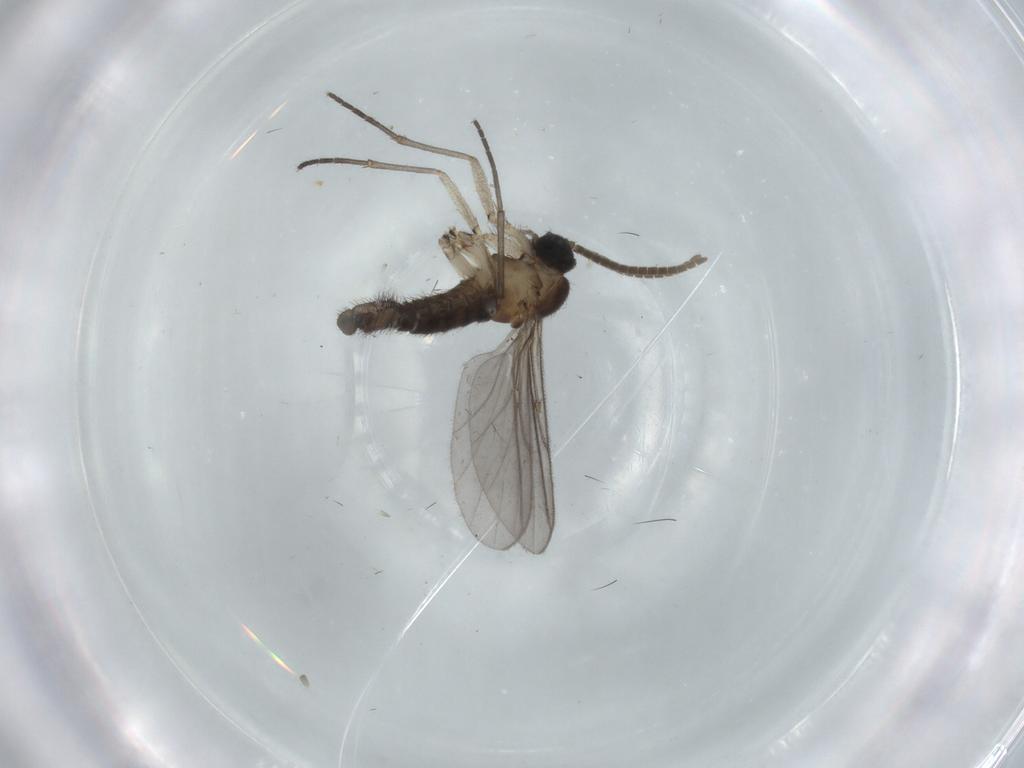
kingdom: Animalia
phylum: Arthropoda
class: Insecta
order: Diptera
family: Sciaridae
